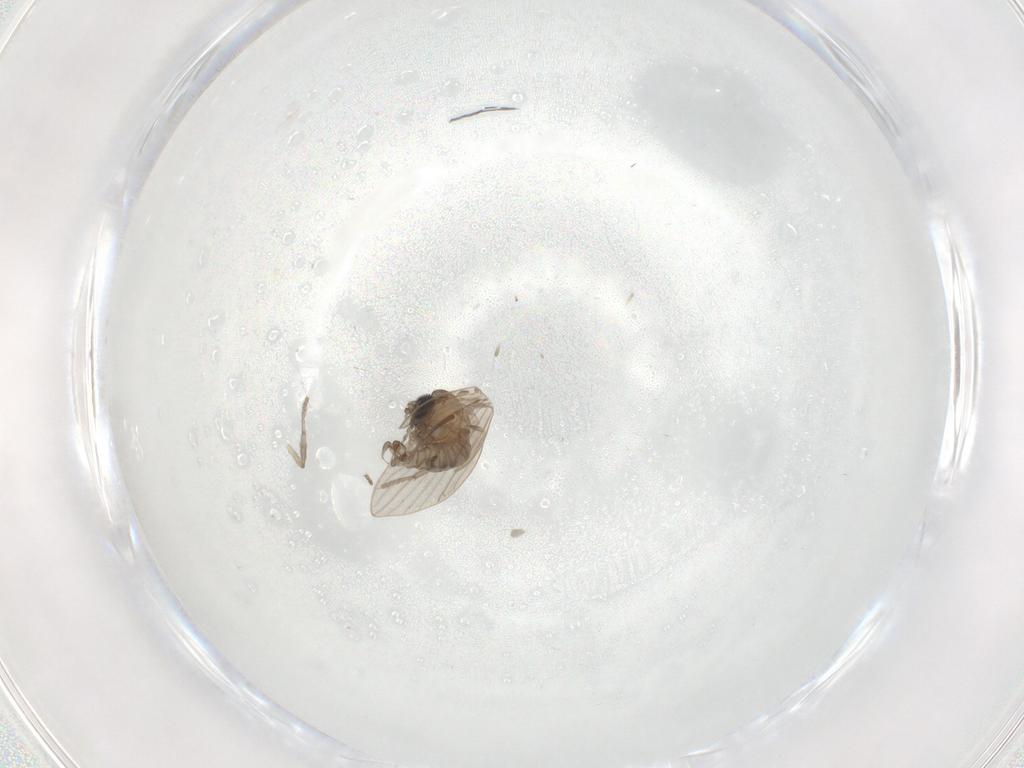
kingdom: Animalia
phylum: Arthropoda
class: Insecta
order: Diptera
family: Psychodidae
